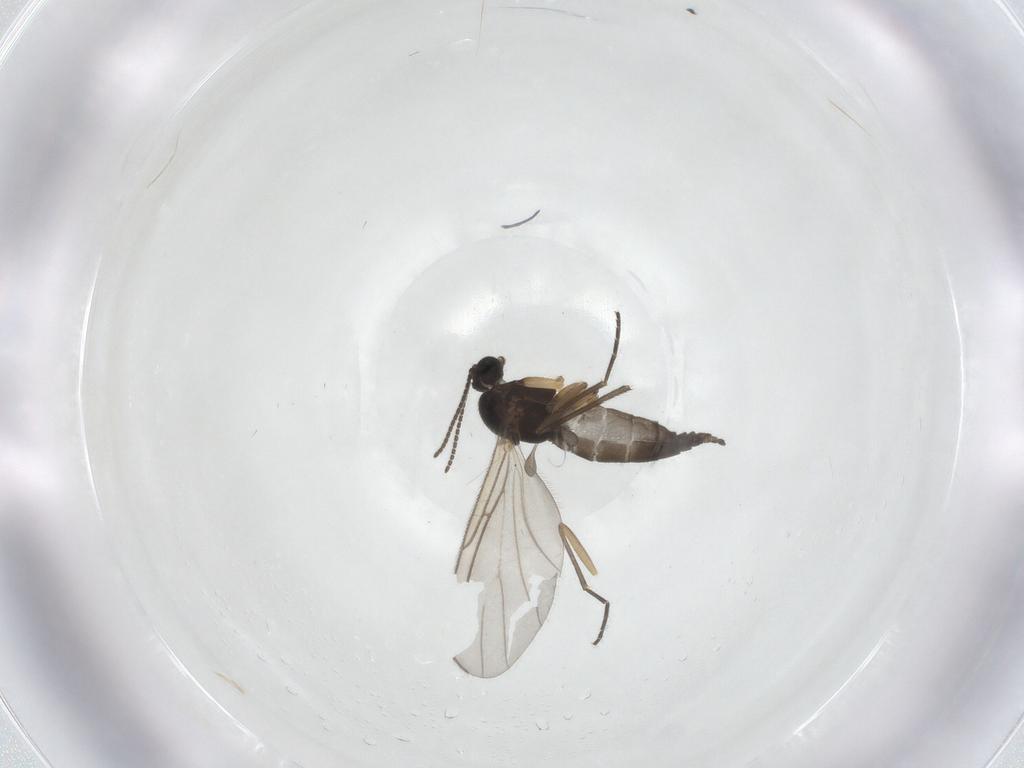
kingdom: Animalia
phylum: Arthropoda
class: Insecta
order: Diptera
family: Sciaridae
